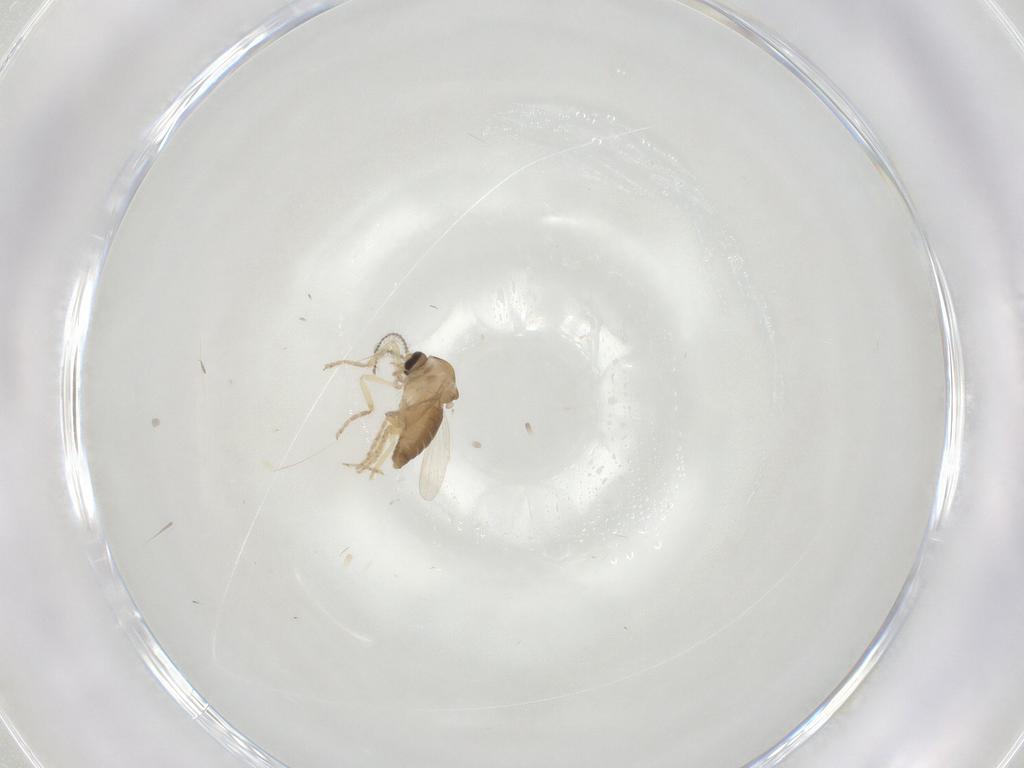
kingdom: Animalia
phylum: Arthropoda
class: Insecta
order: Diptera
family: Ceratopogonidae
